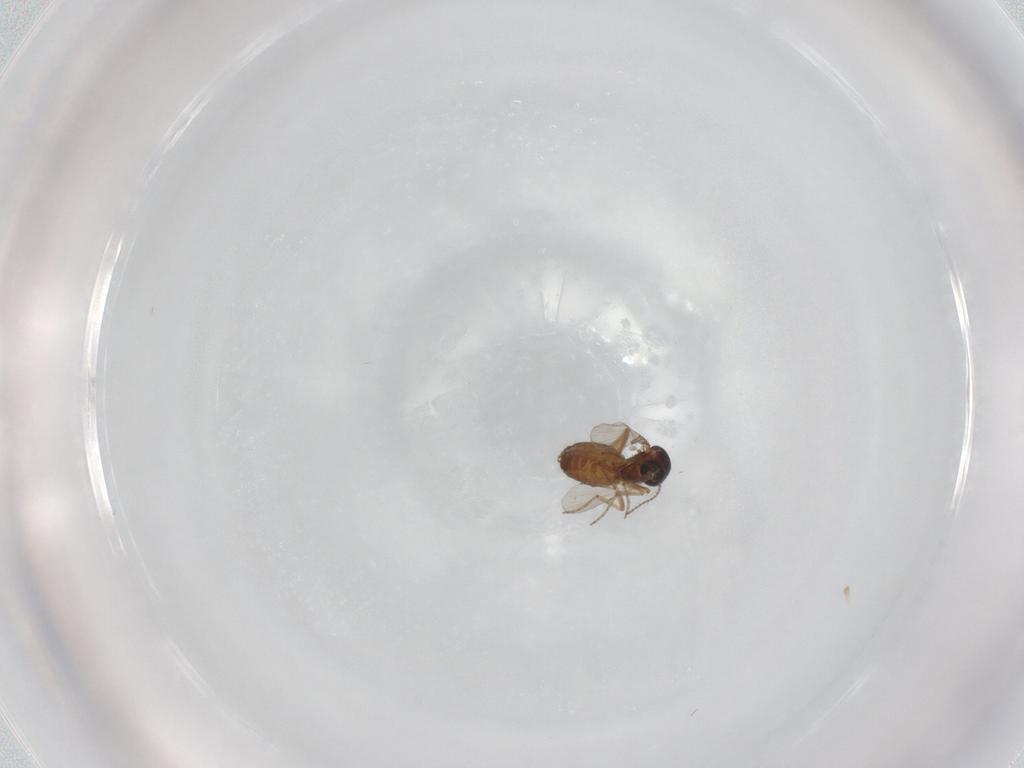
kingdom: Animalia
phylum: Arthropoda
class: Insecta
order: Diptera
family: Ceratopogonidae
